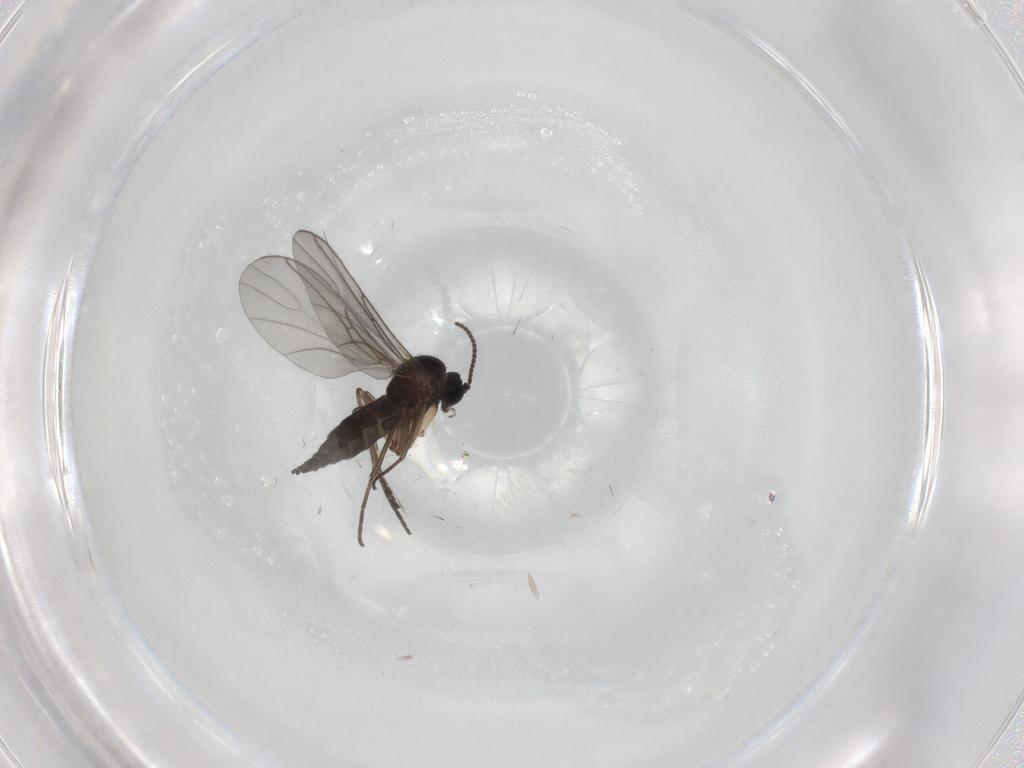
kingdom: Animalia
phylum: Arthropoda
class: Insecta
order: Diptera
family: Sciaridae
